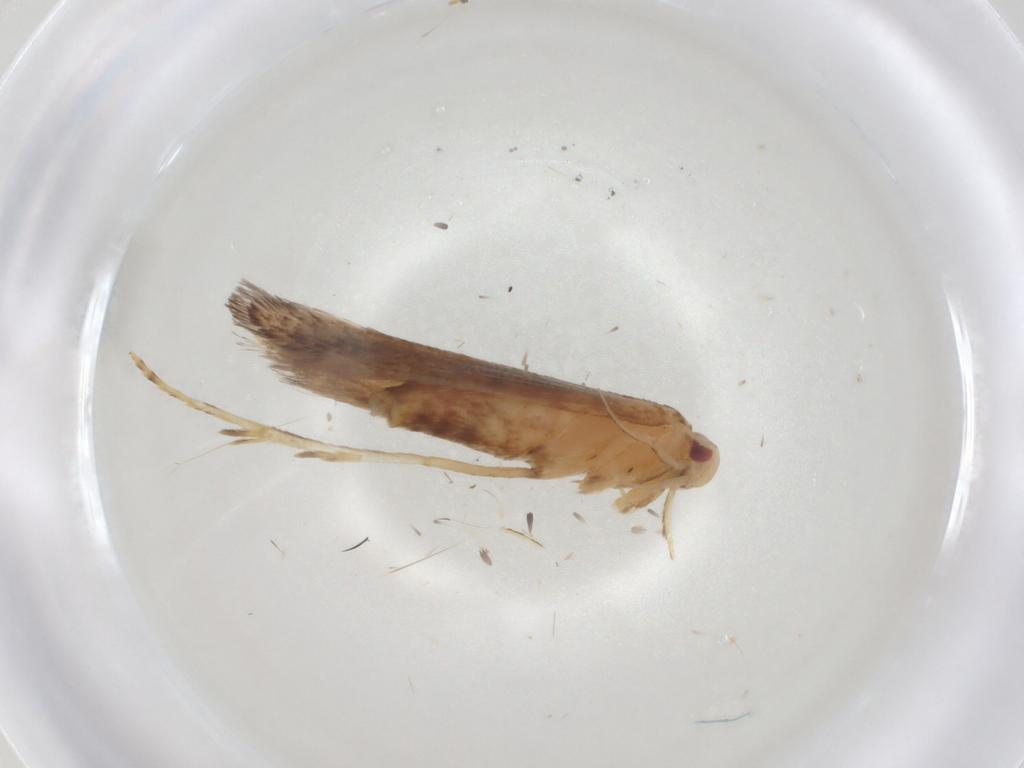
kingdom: Animalia
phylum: Arthropoda
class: Insecta
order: Lepidoptera
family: Cosmopterigidae
